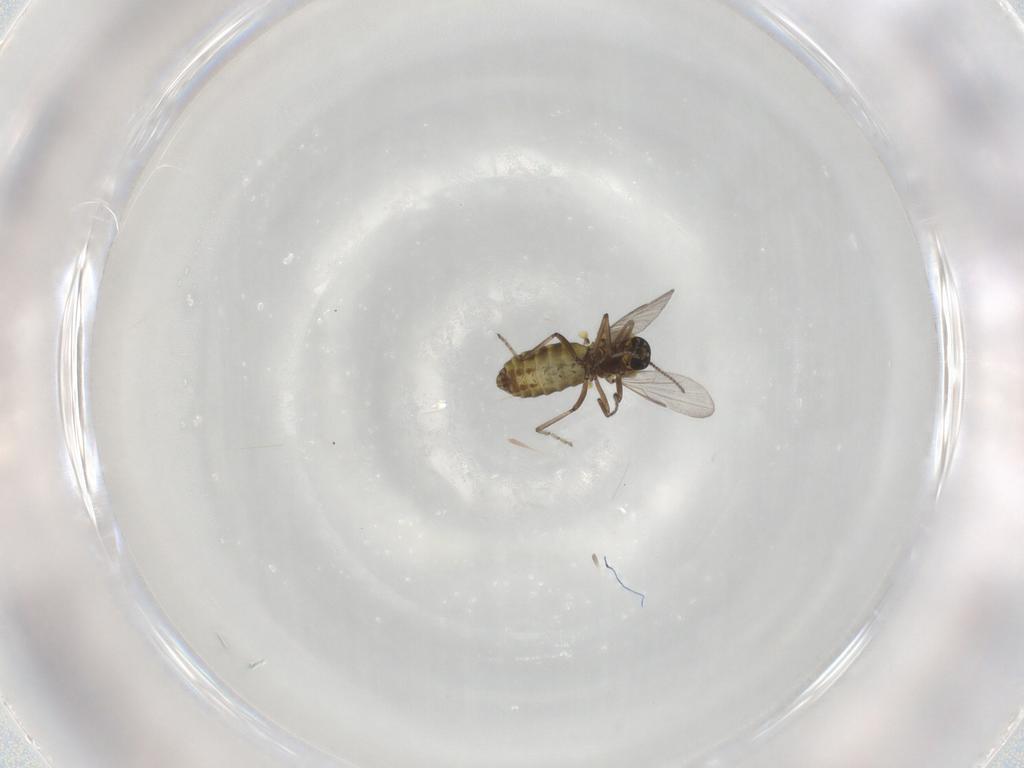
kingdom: Animalia
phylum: Arthropoda
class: Insecta
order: Diptera
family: Ceratopogonidae
